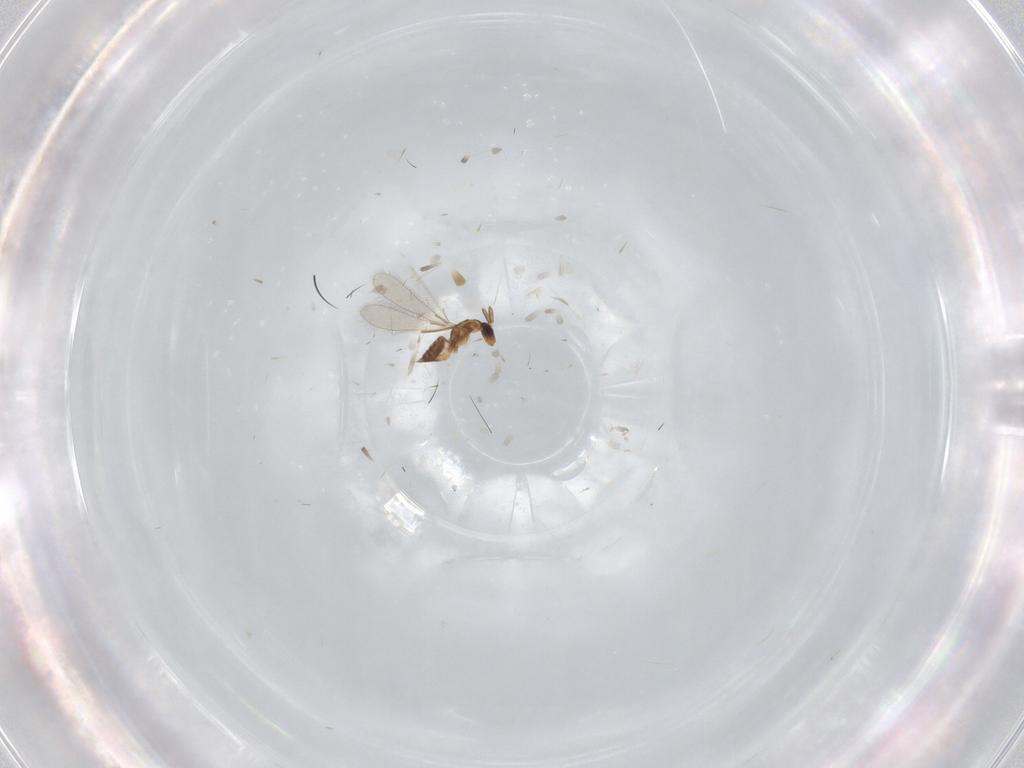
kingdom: Animalia
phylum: Arthropoda
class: Insecta
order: Hymenoptera
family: Mymaridae
